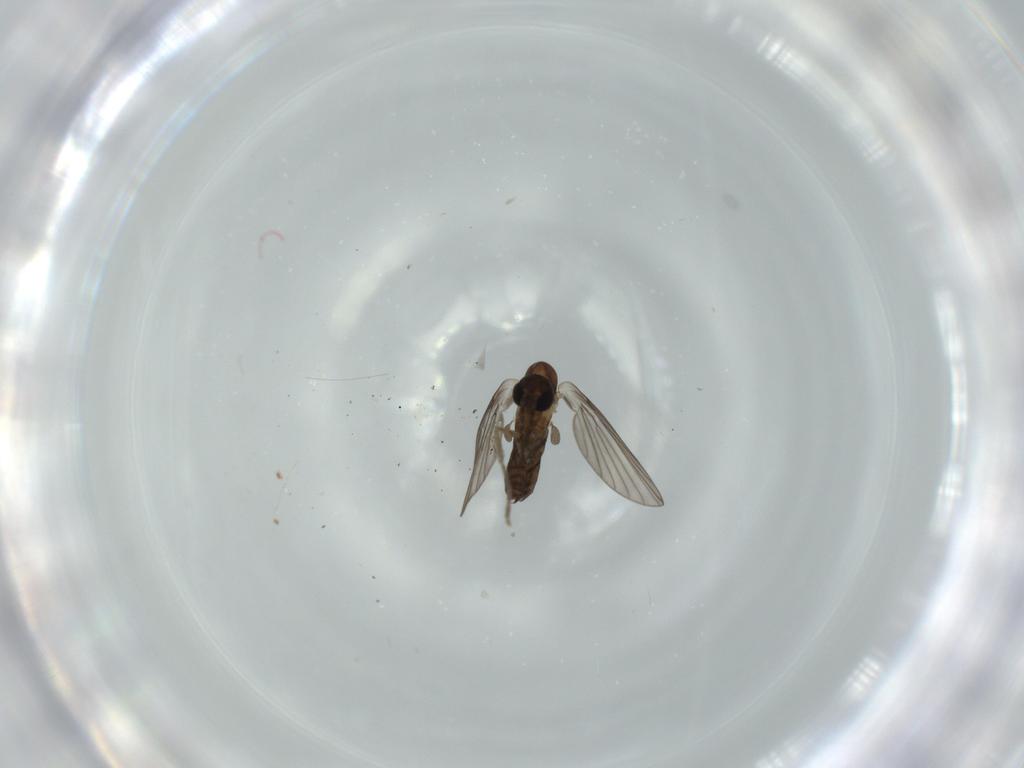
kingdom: Animalia
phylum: Arthropoda
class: Insecta
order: Diptera
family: Psychodidae
